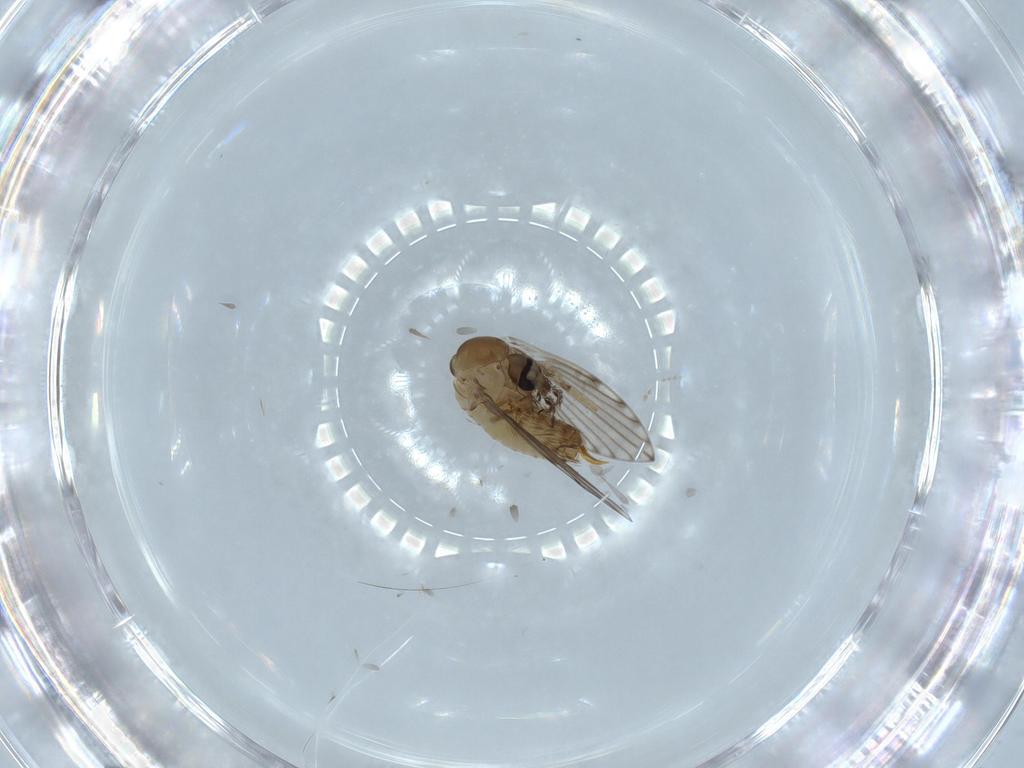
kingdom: Animalia
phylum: Arthropoda
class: Insecta
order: Diptera
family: Psychodidae
